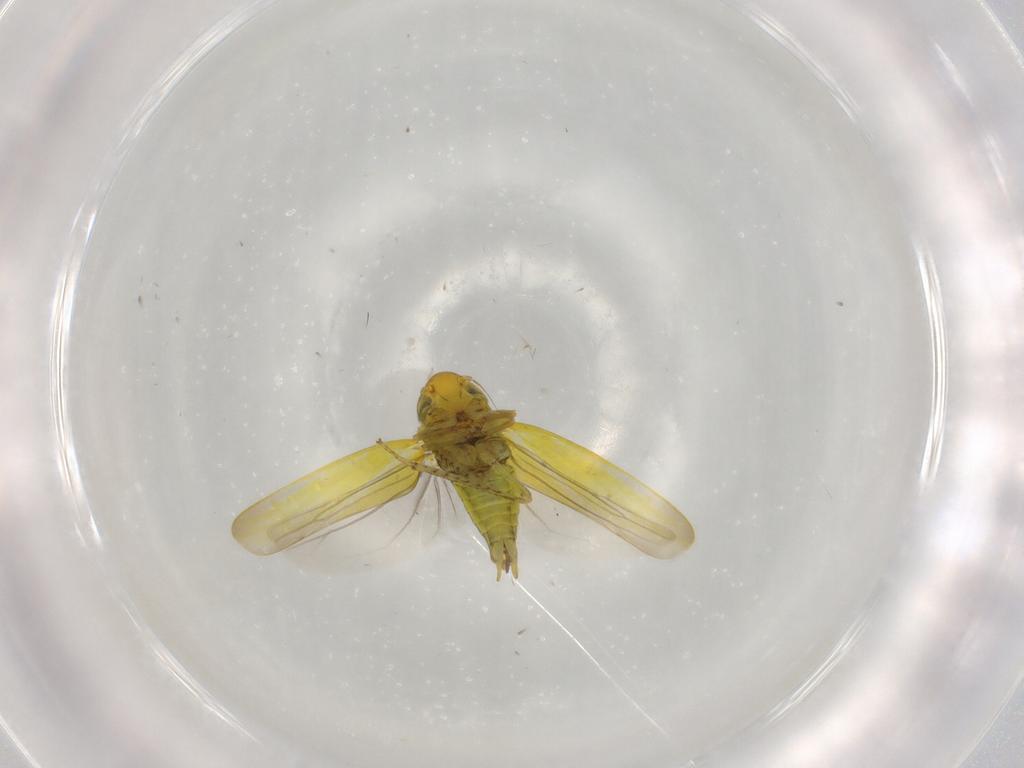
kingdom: Animalia
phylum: Arthropoda
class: Insecta
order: Hemiptera
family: Cicadellidae
